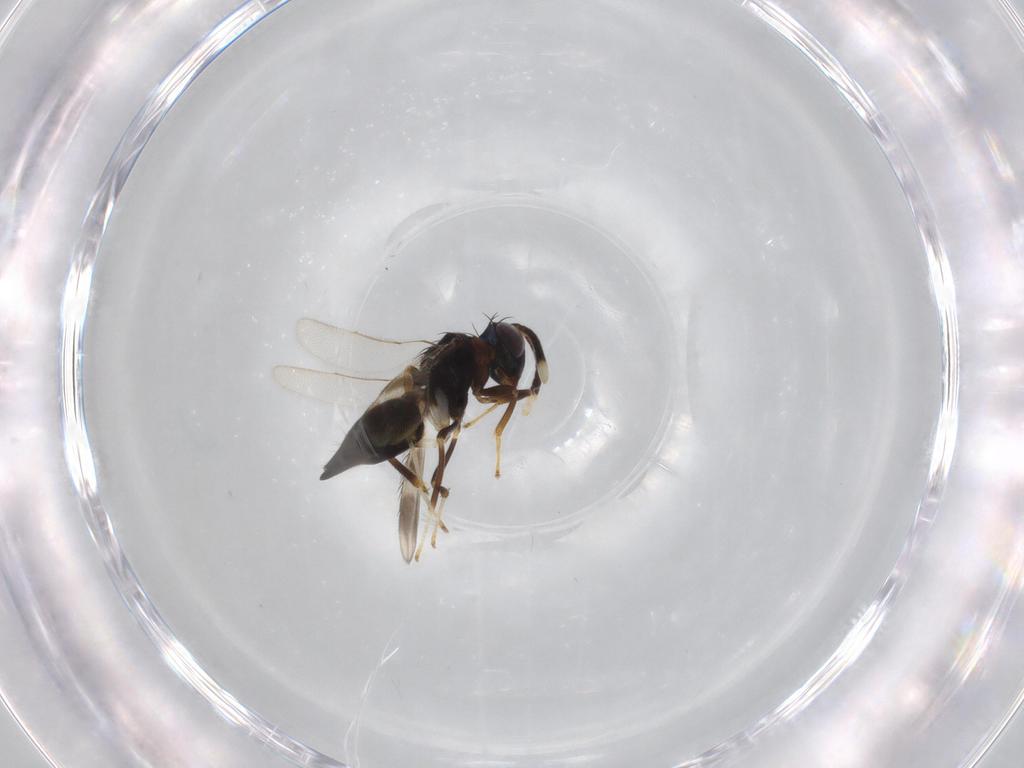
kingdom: Animalia
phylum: Arthropoda
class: Insecta
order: Hymenoptera
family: Diparidae
